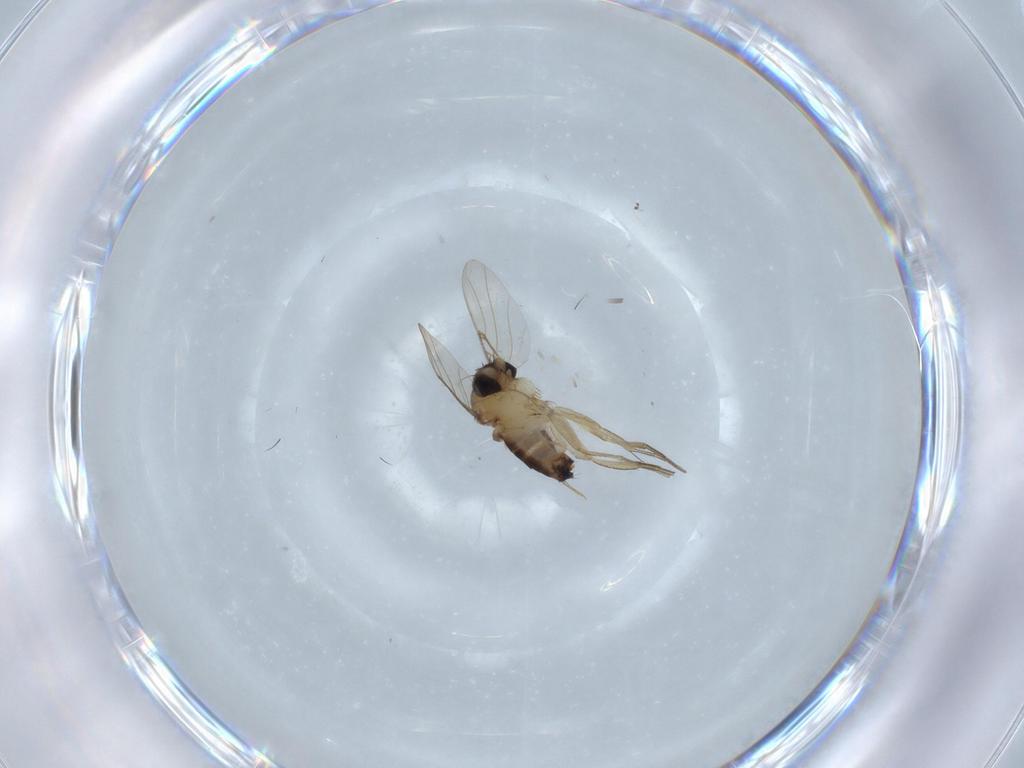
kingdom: Animalia
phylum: Arthropoda
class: Insecta
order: Diptera
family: Phoridae
